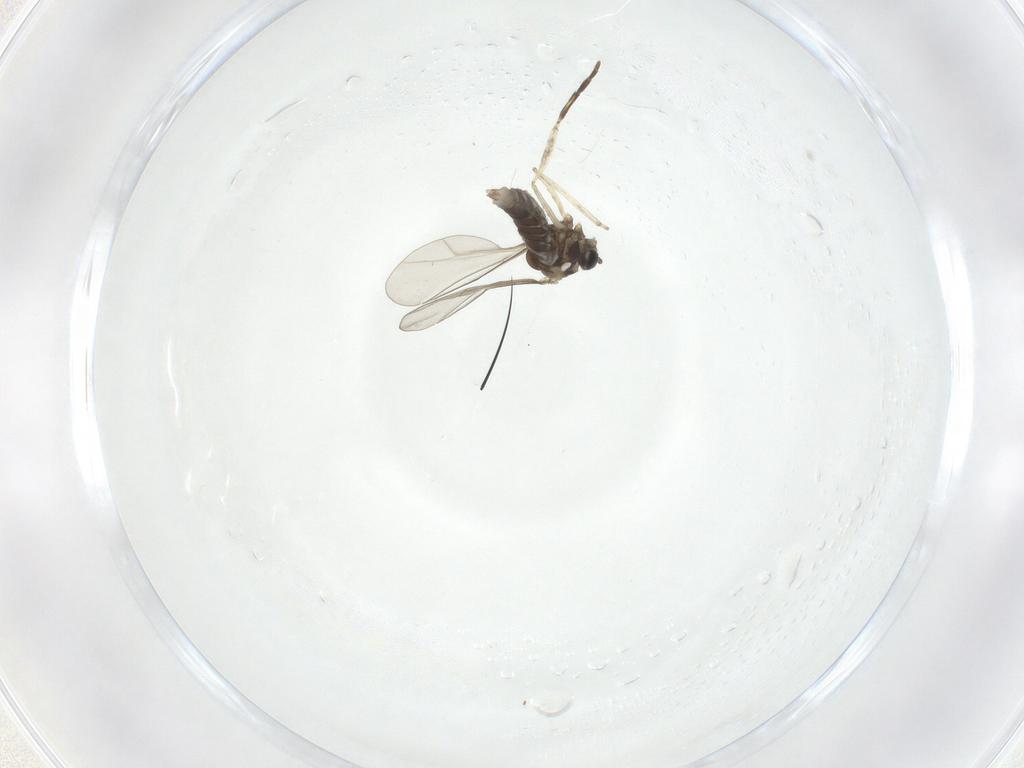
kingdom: Animalia
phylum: Arthropoda
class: Insecta
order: Diptera
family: Cecidomyiidae
